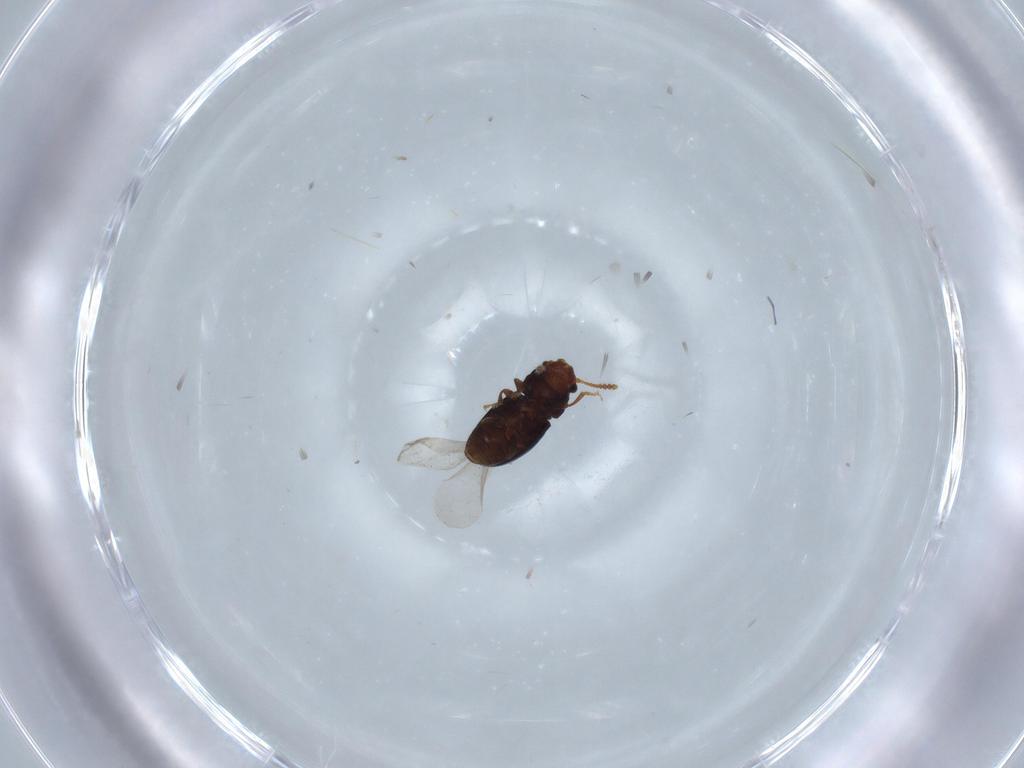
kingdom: Animalia
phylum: Arthropoda
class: Insecta
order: Coleoptera
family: Salpingidae
